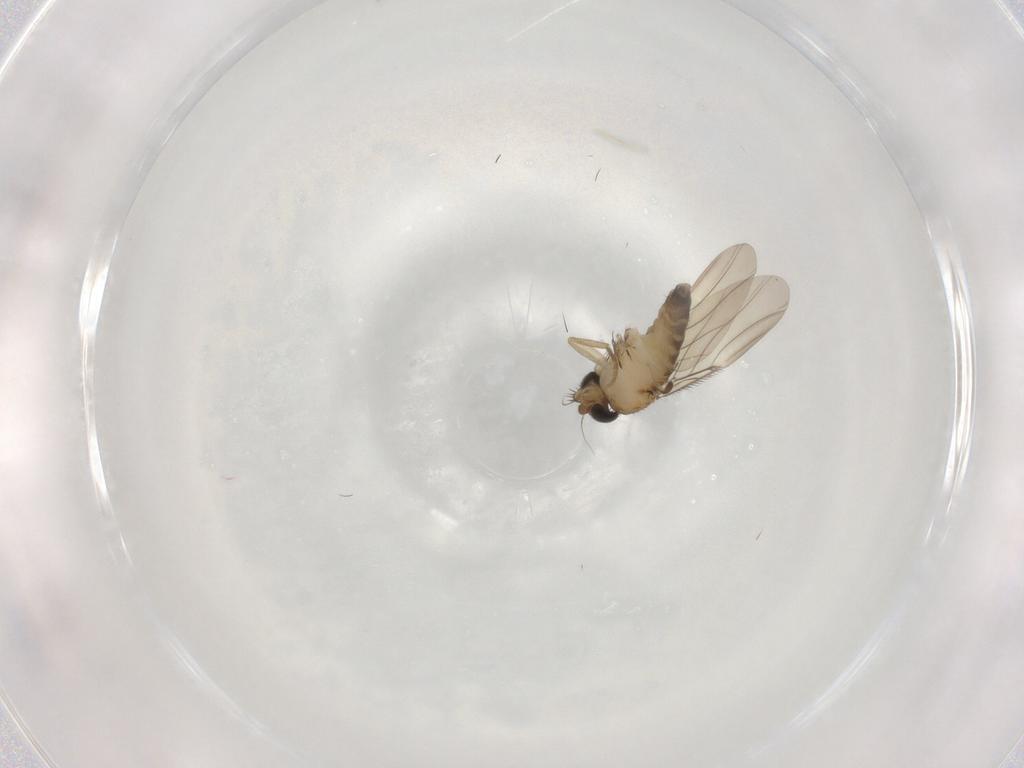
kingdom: Animalia
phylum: Arthropoda
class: Insecta
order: Diptera
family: Phoridae
